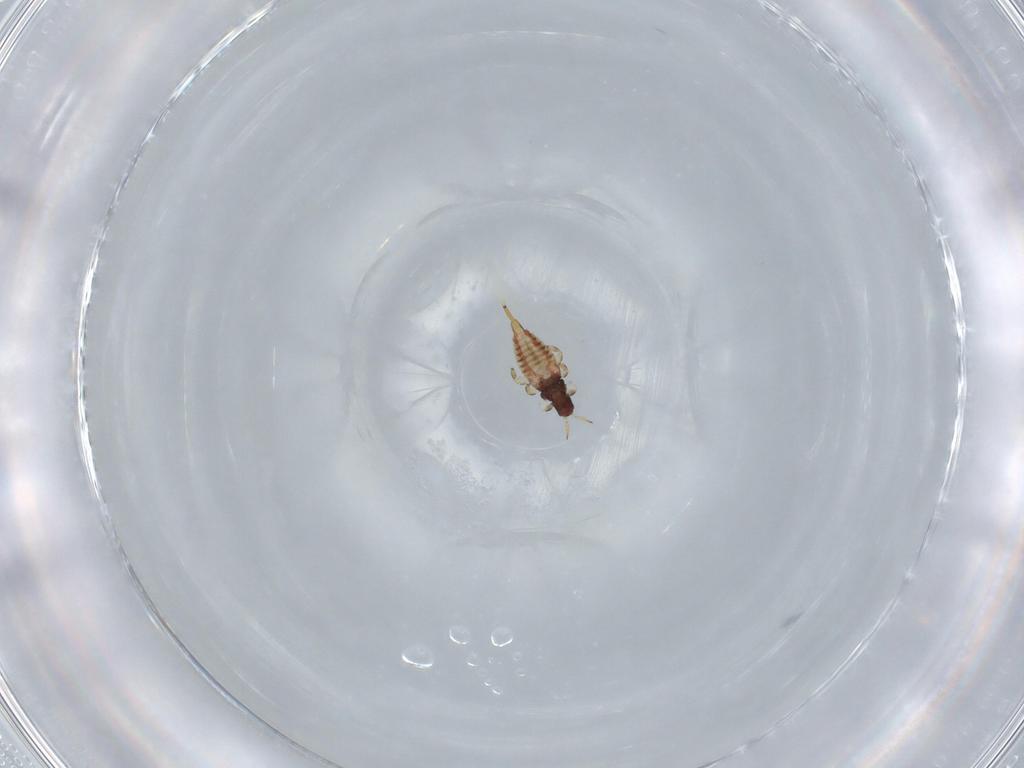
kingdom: Animalia
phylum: Arthropoda
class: Insecta
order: Thysanoptera
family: Phlaeothripidae
